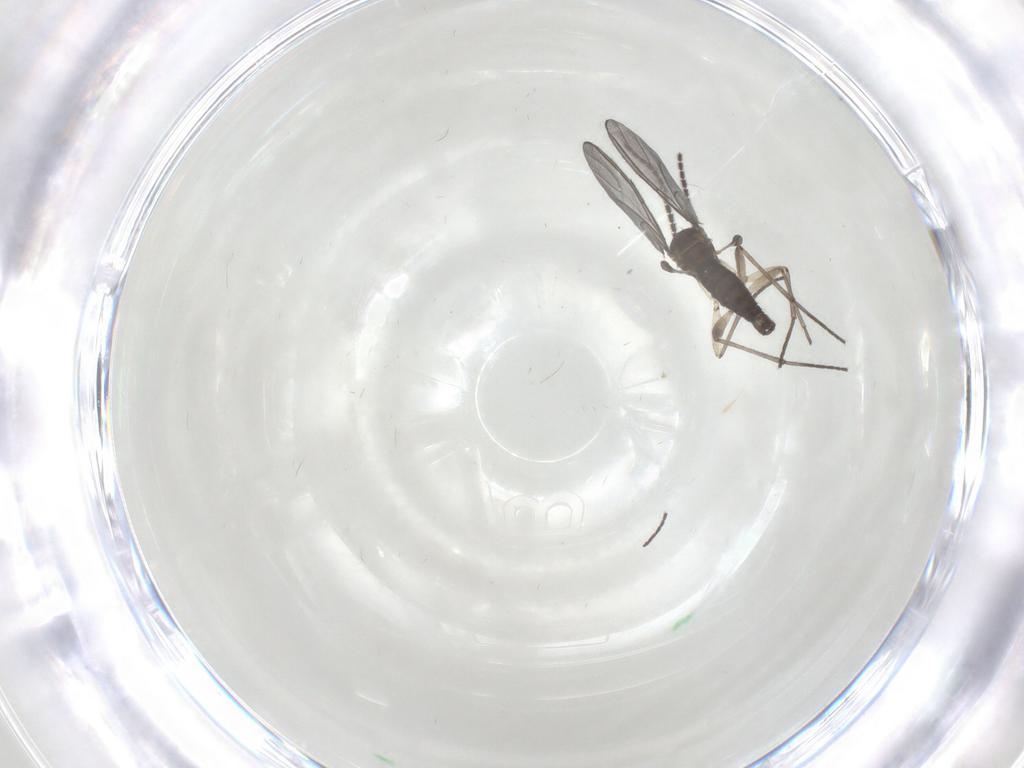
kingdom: Animalia
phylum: Arthropoda
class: Insecta
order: Diptera
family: Sciaridae
